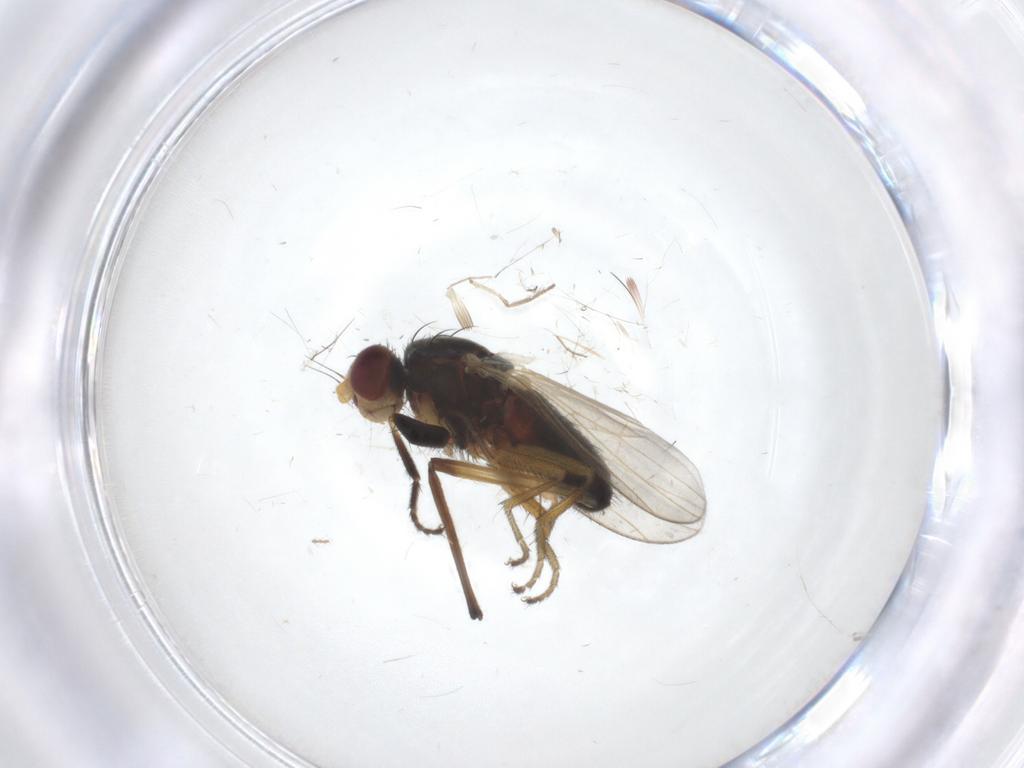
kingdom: Animalia
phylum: Arthropoda
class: Insecta
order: Diptera
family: Heleomyzidae
